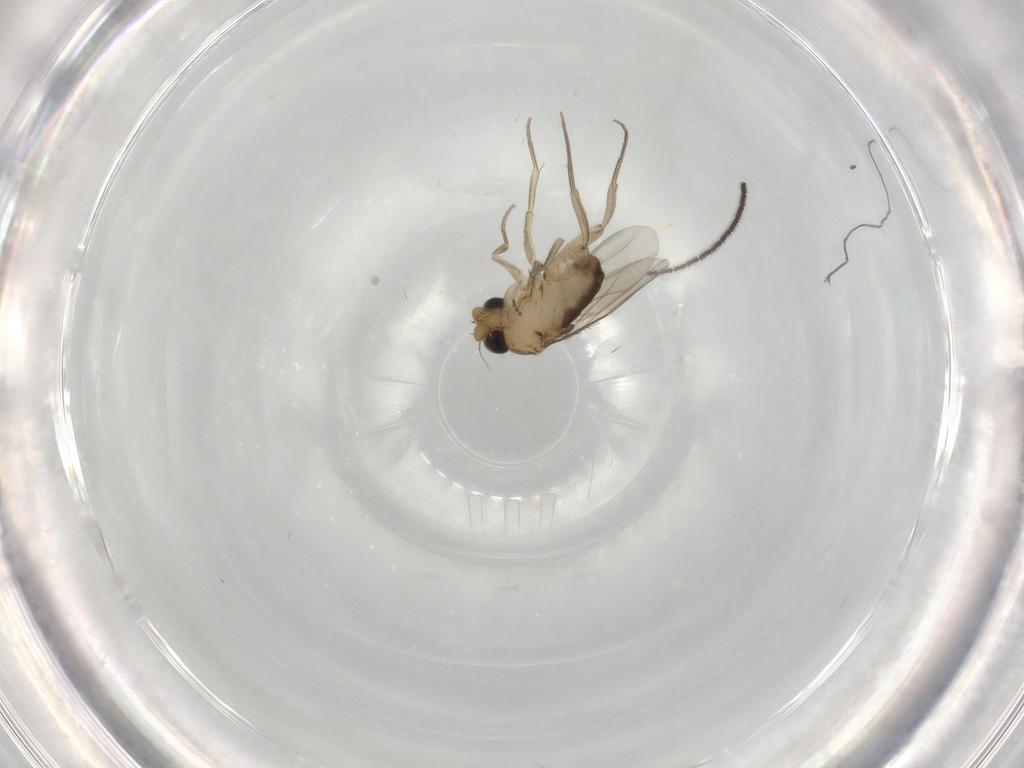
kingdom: Animalia
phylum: Arthropoda
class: Insecta
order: Diptera
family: Phoridae
